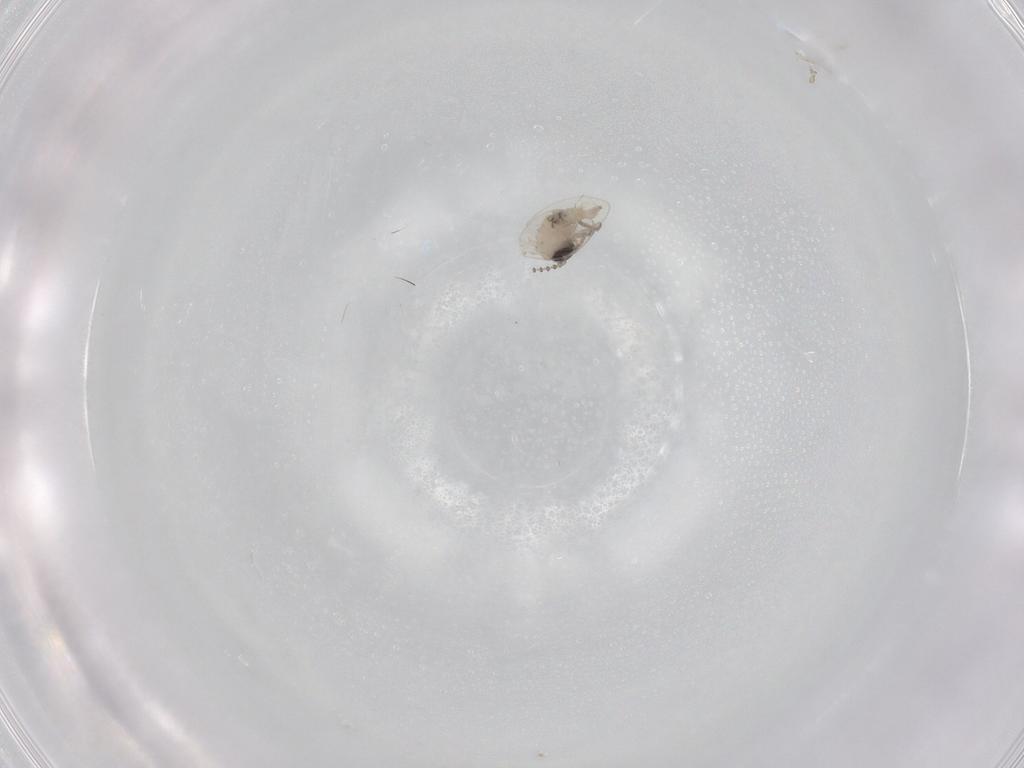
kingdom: Animalia
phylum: Arthropoda
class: Insecta
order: Diptera
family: Psychodidae
